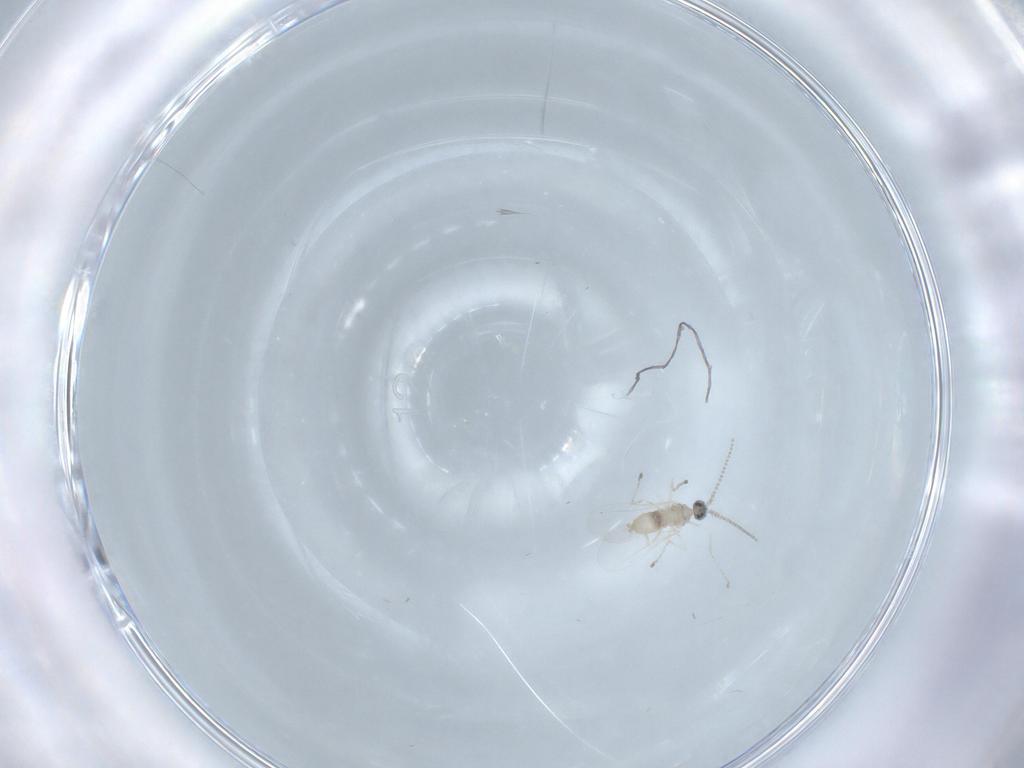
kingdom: Animalia
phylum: Arthropoda
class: Insecta
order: Diptera
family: Cecidomyiidae
